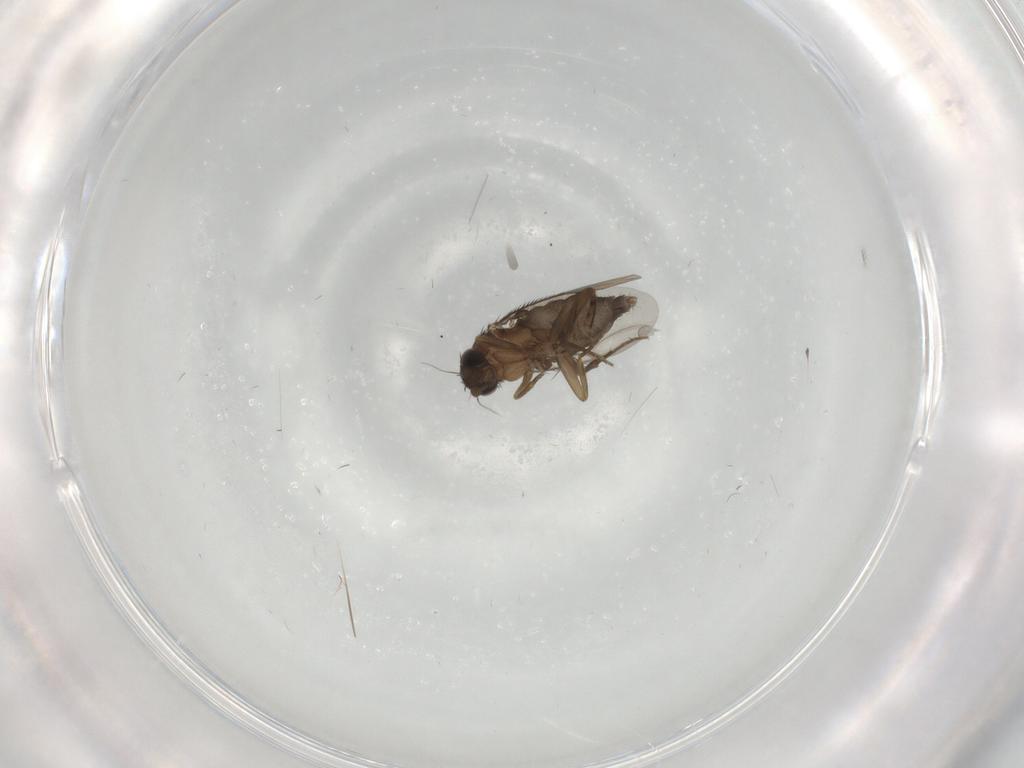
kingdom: Animalia
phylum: Arthropoda
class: Insecta
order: Diptera
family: Phoridae
